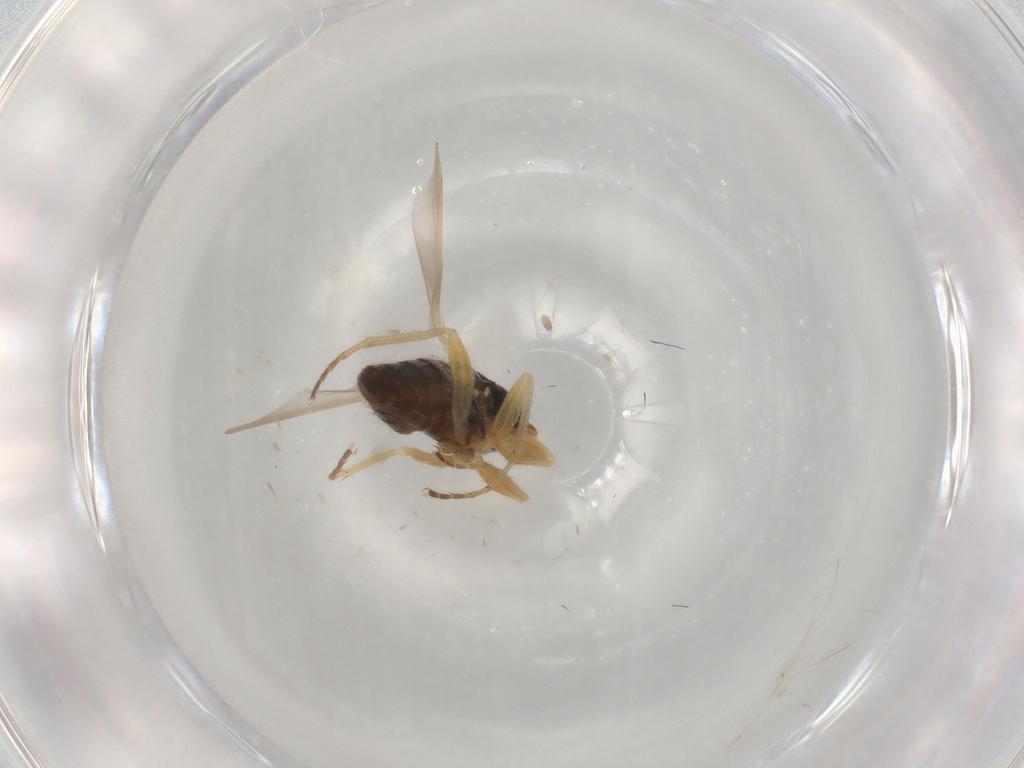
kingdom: Animalia
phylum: Arthropoda
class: Insecta
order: Diptera
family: Dolichopodidae
